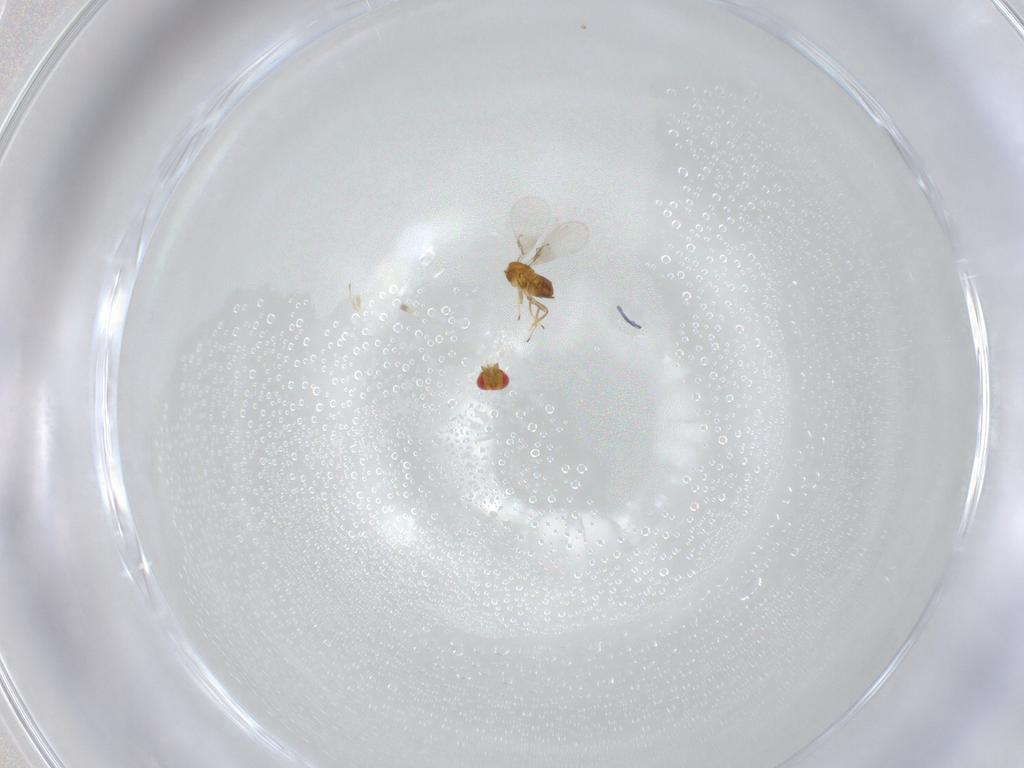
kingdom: Animalia
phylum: Arthropoda
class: Insecta
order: Hymenoptera
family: Trichogrammatidae
